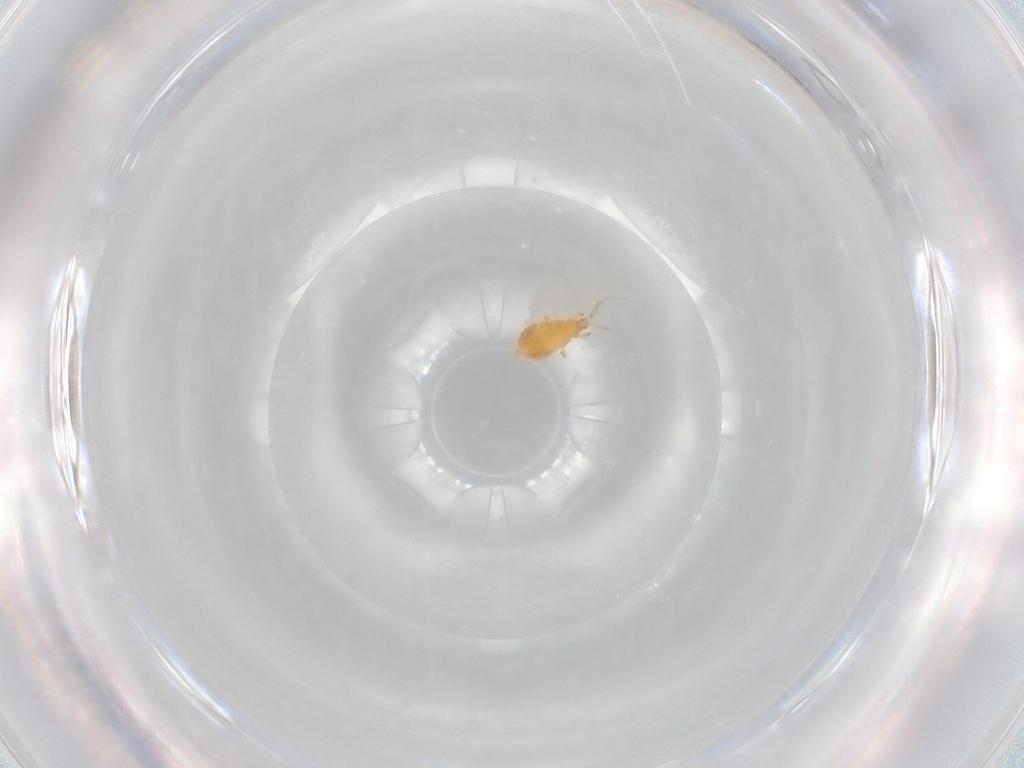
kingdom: Animalia
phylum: Arthropoda
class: Insecta
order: Thysanoptera
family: Heterothripidae
